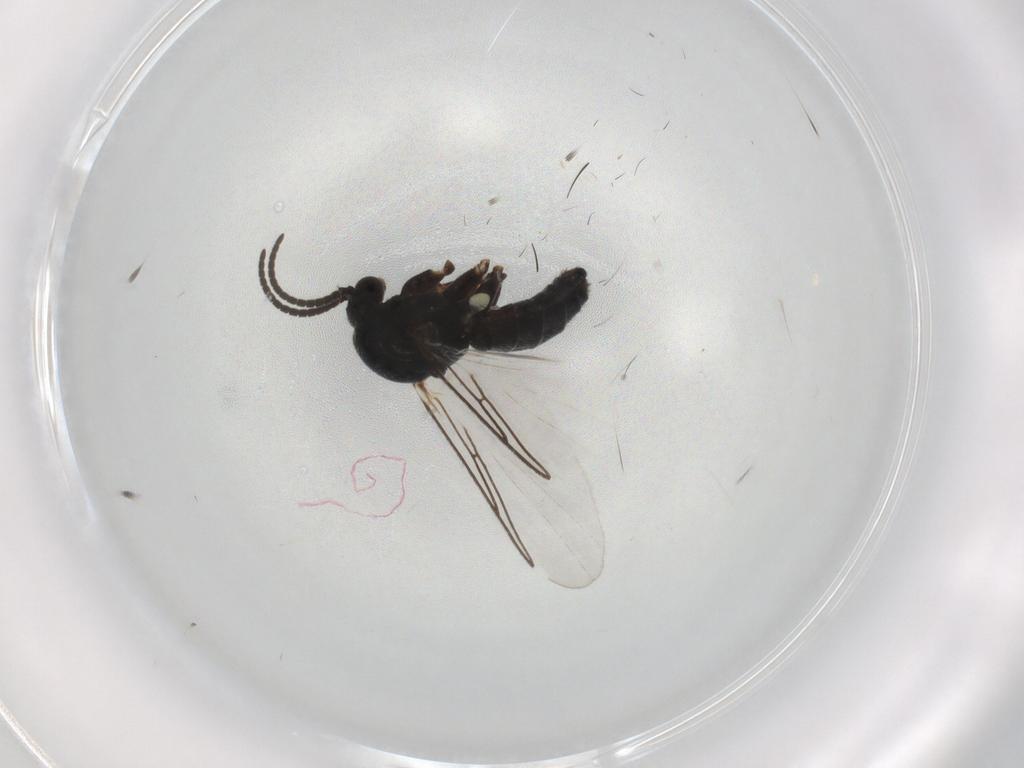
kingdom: Animalia
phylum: Arthropoda
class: Insecta
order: Diptera
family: Mycetophilidae
